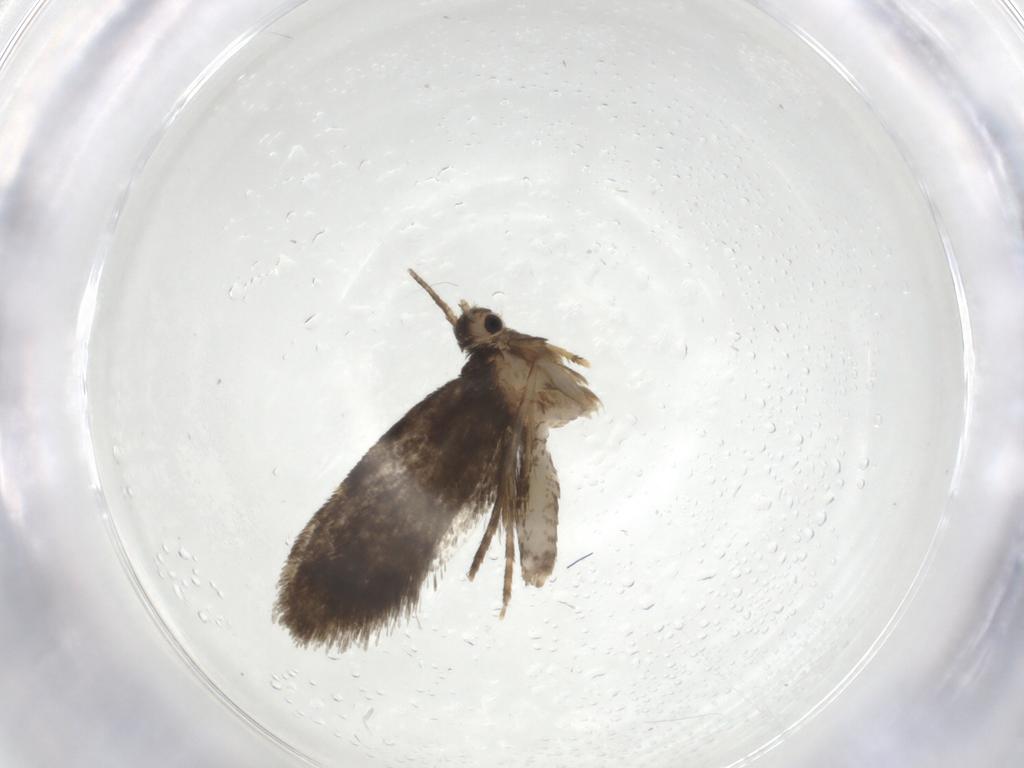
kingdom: Animalia
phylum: Arthropoda
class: Insecta
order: Lepidoptera
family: Psychidae
